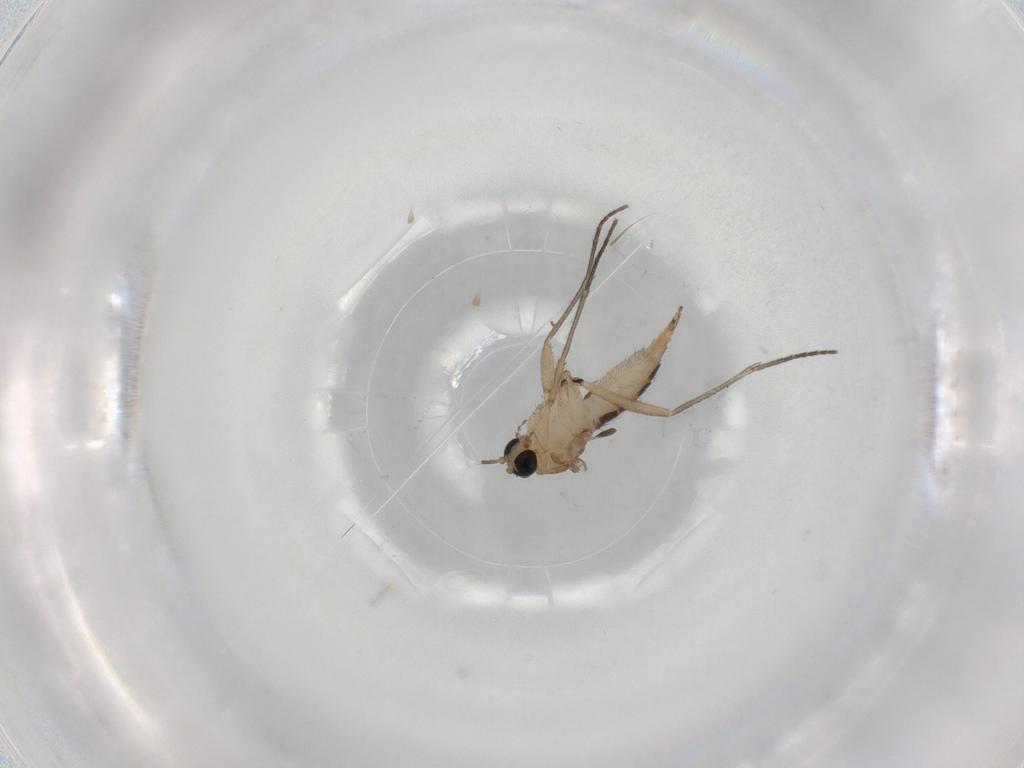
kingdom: Animalia
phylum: Arthropoda
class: Insecta
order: Diptera
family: Sciaridae
